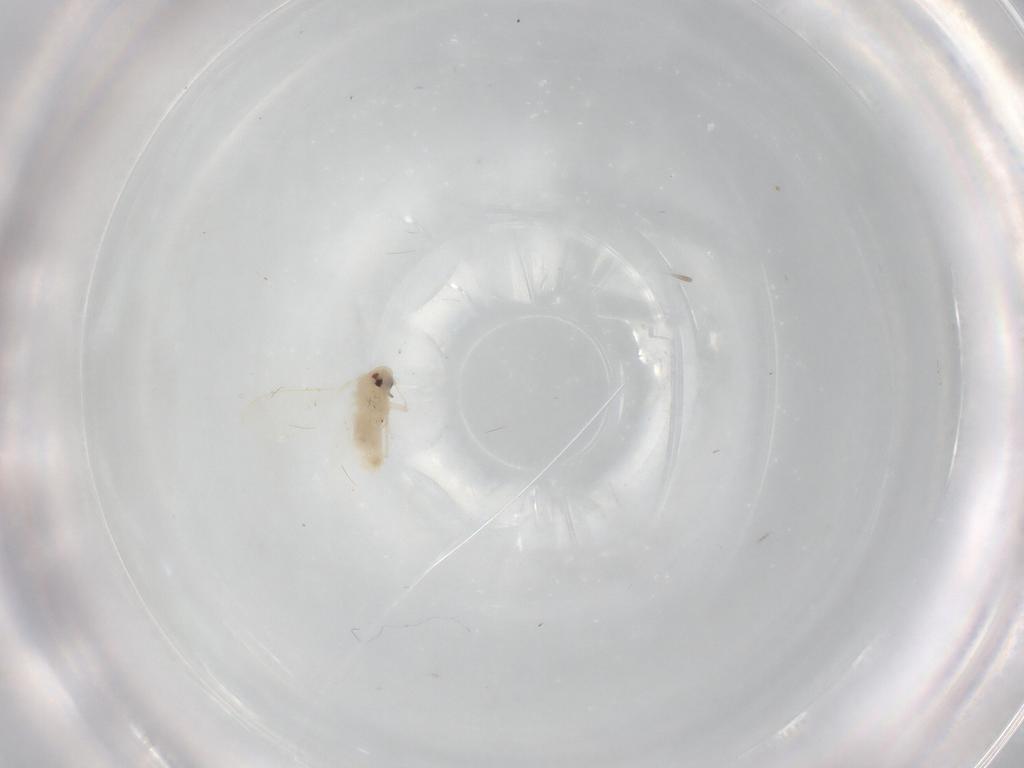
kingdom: Animalia
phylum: Arthropoda
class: Insecta
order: Hemiptera
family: Aleyrodidae
